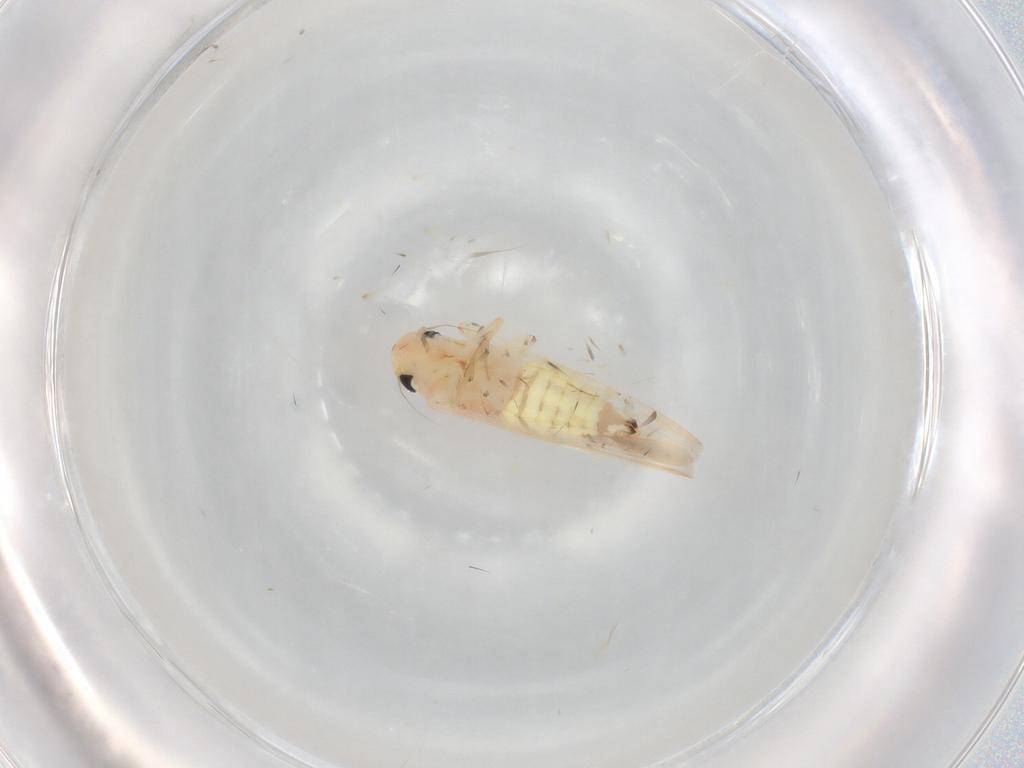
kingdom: Animalia
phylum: Arthropoda
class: Insecta
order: Hemiptera
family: Cicadellidae
